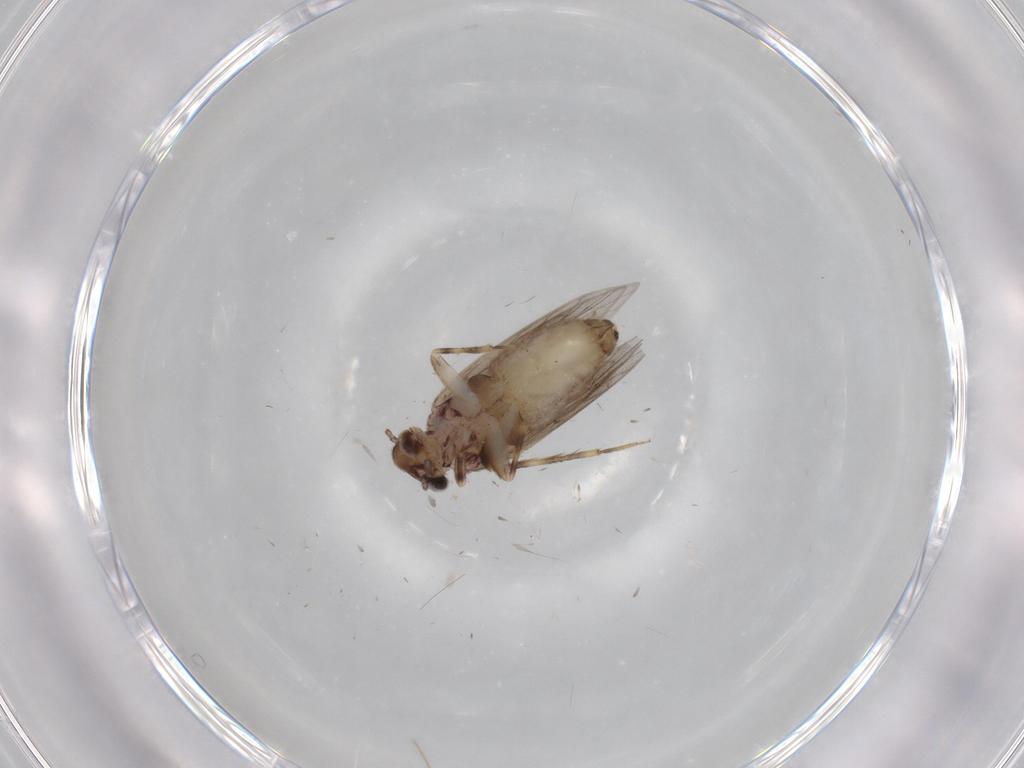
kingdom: Animalia
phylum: Arthropoda
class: Insecta
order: Psocodea
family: Lepidopsocidae
